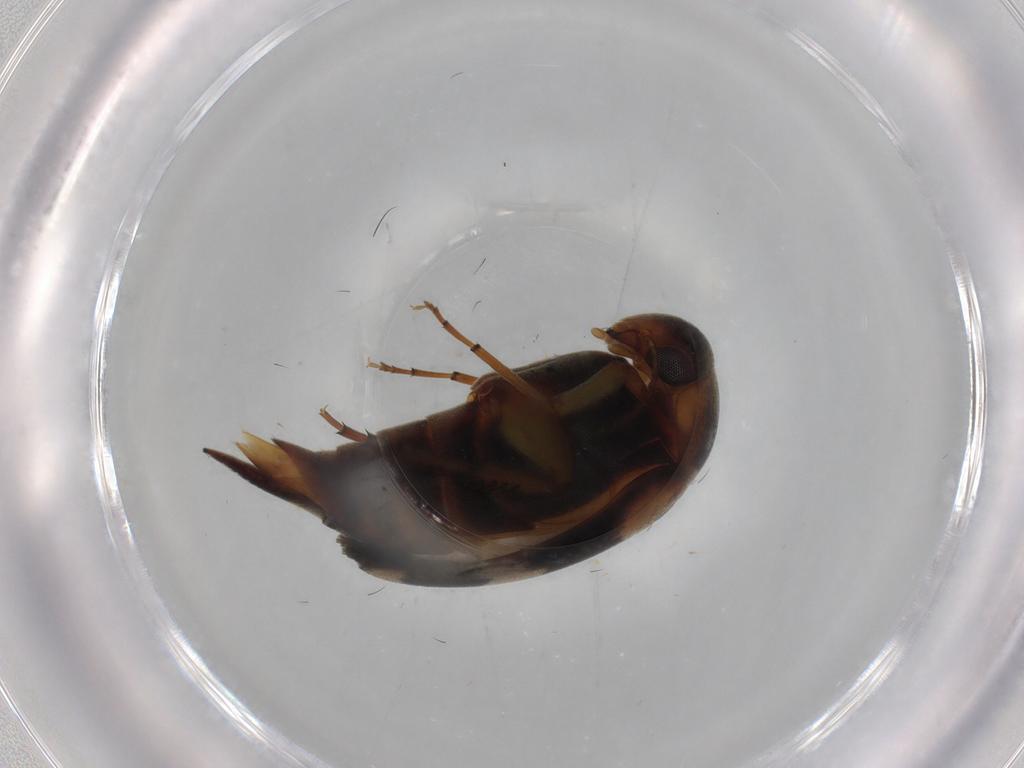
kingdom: Animalia
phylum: Arthropoda
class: Insecta
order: Coleoptera
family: Mordellidae
